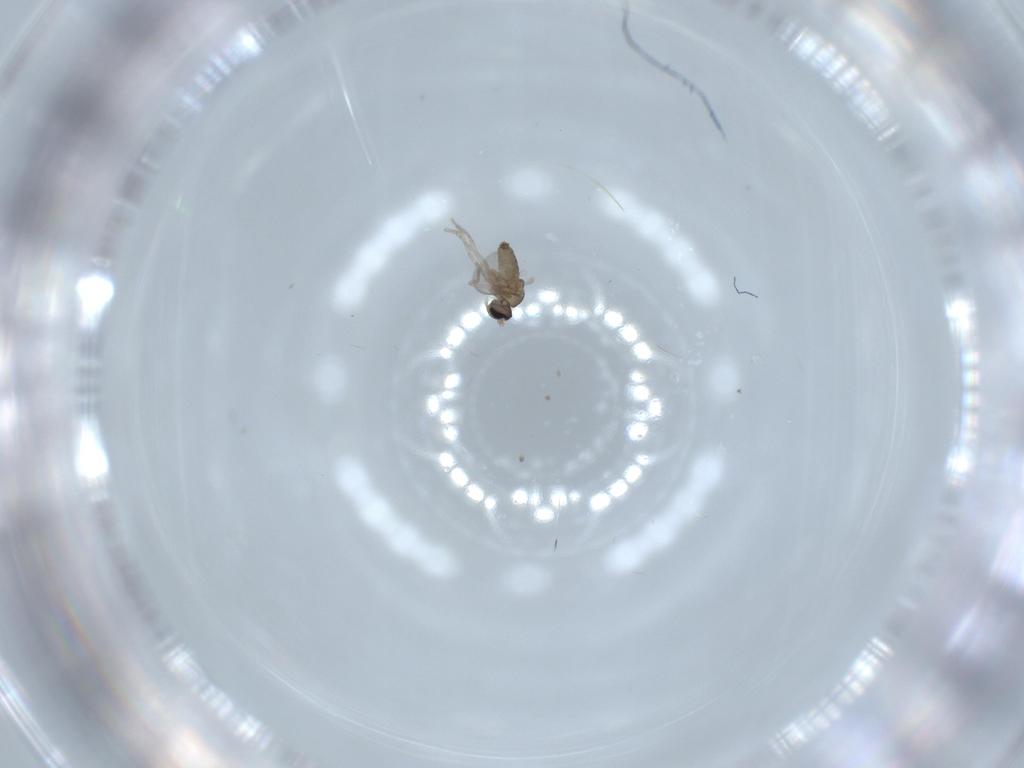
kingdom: Animalia
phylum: Arthropoda
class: Insecta
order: Diptera
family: Cecidomyiidae
